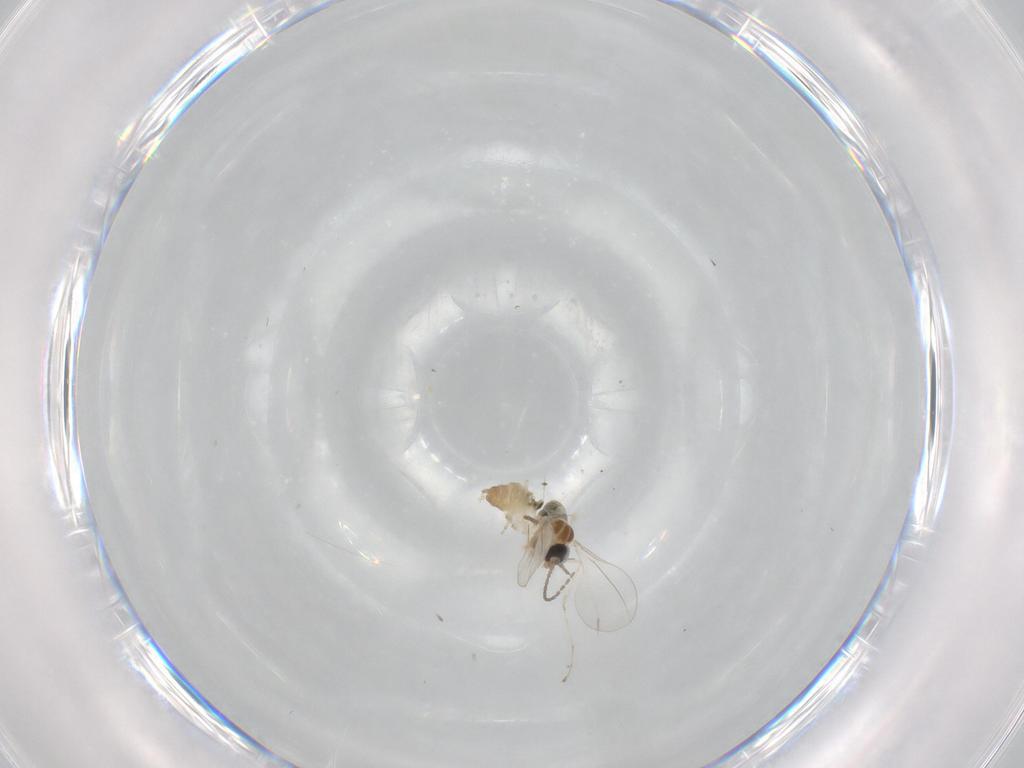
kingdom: Animalia
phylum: Arthropoda
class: Insecta
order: Diptera
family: Cecidomyiidae
